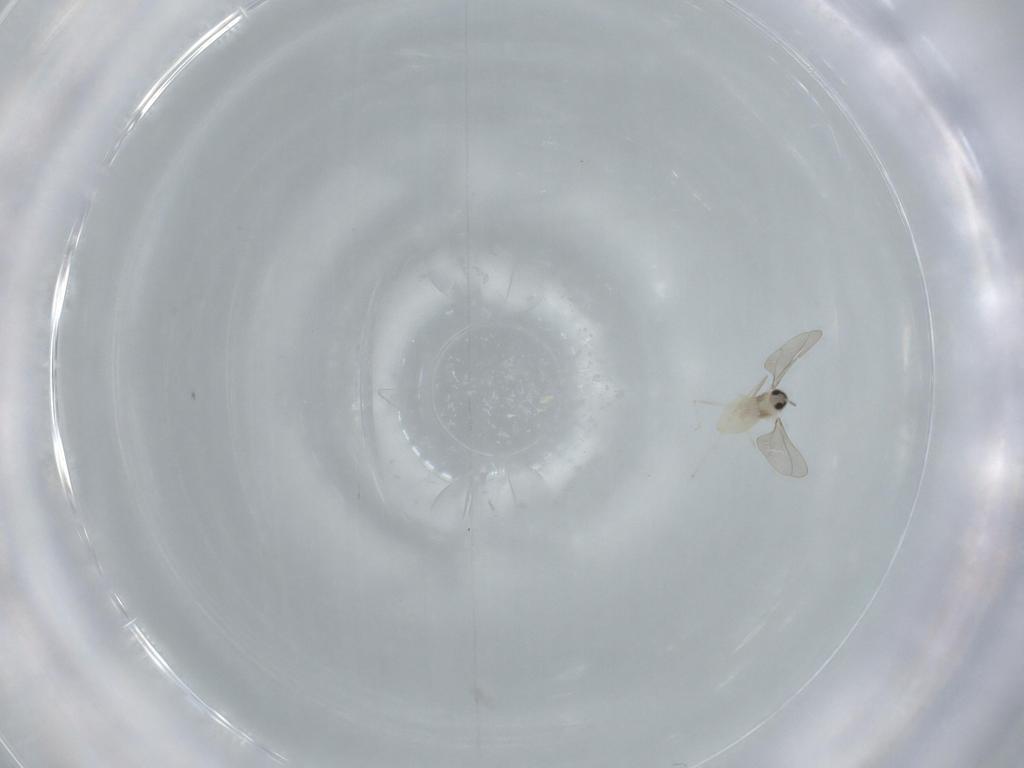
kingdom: Animalia
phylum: Arthropoda
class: Insecta
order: Diptera
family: Cecidomyiidae
